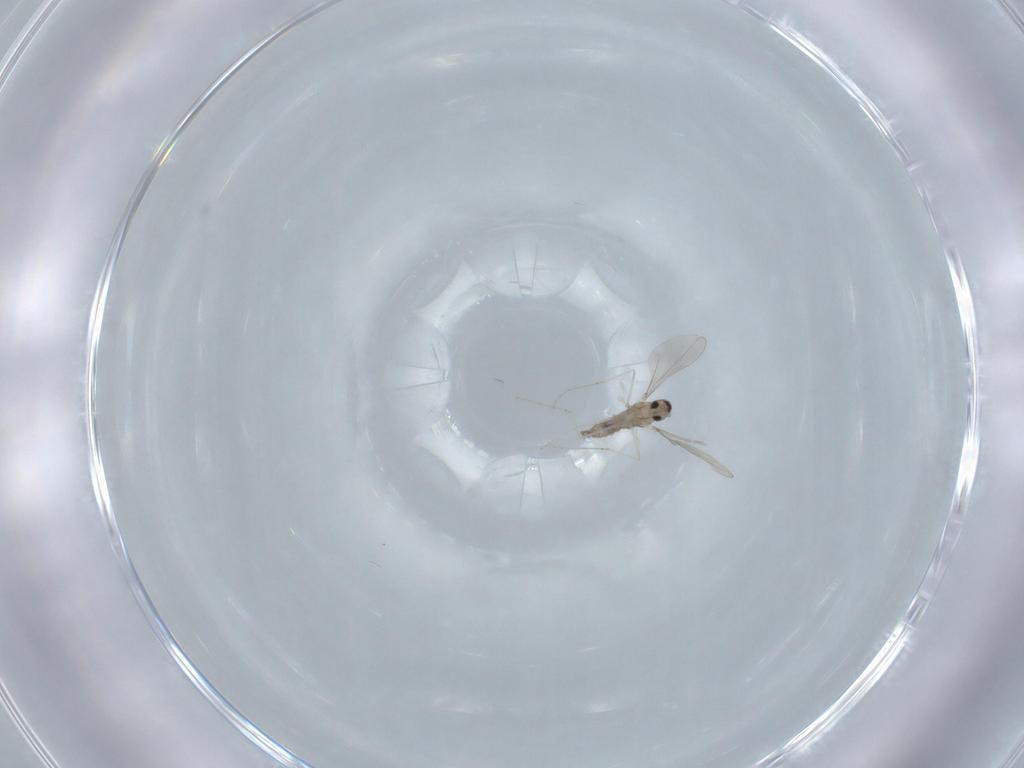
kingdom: Animalia
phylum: Arthropoda
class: Insecta
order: Diptera
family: Cecidomyiidae
